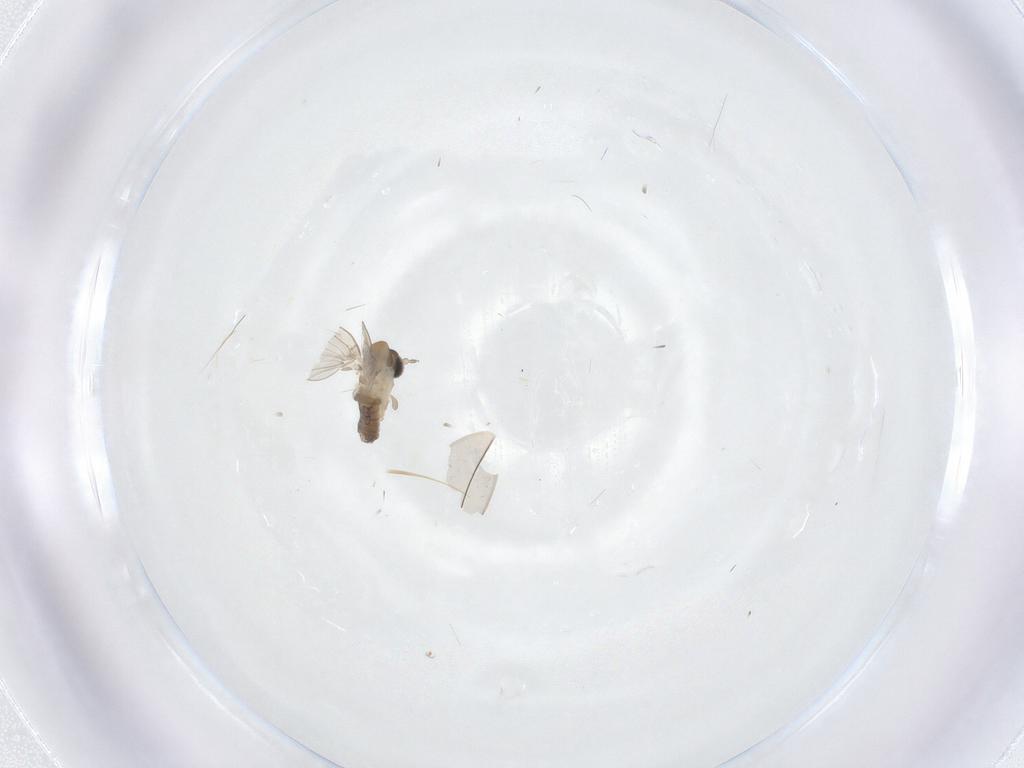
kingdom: Animalia
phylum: Arthropoda
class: Insecta
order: Diptera
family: Psychodidae
